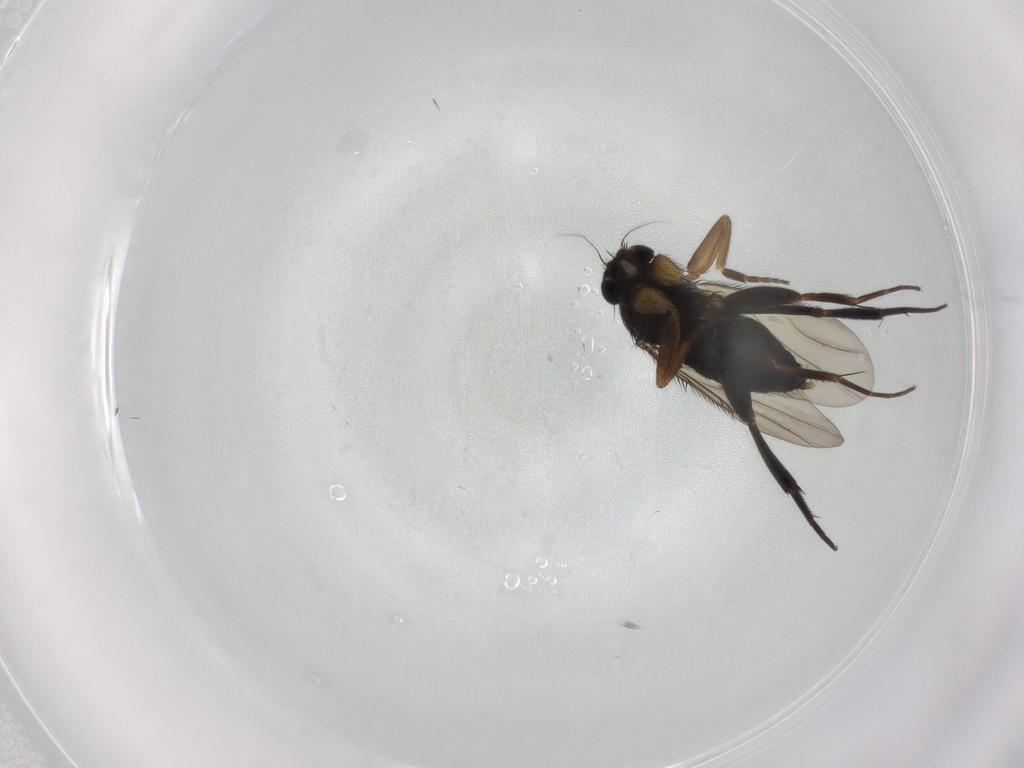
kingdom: Animalia
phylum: Arthropoda
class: Insecta
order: Diptera
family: Phoridae
